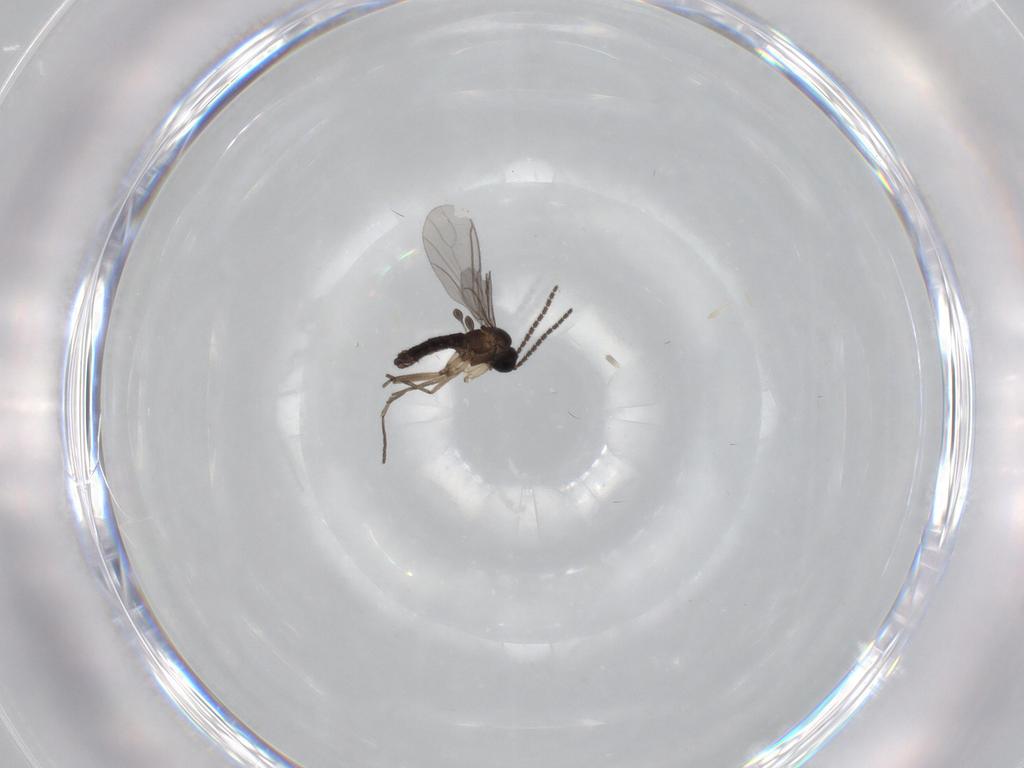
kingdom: Animalia
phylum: Arthropoda
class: Insecta
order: Diptera
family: Sciaridae
